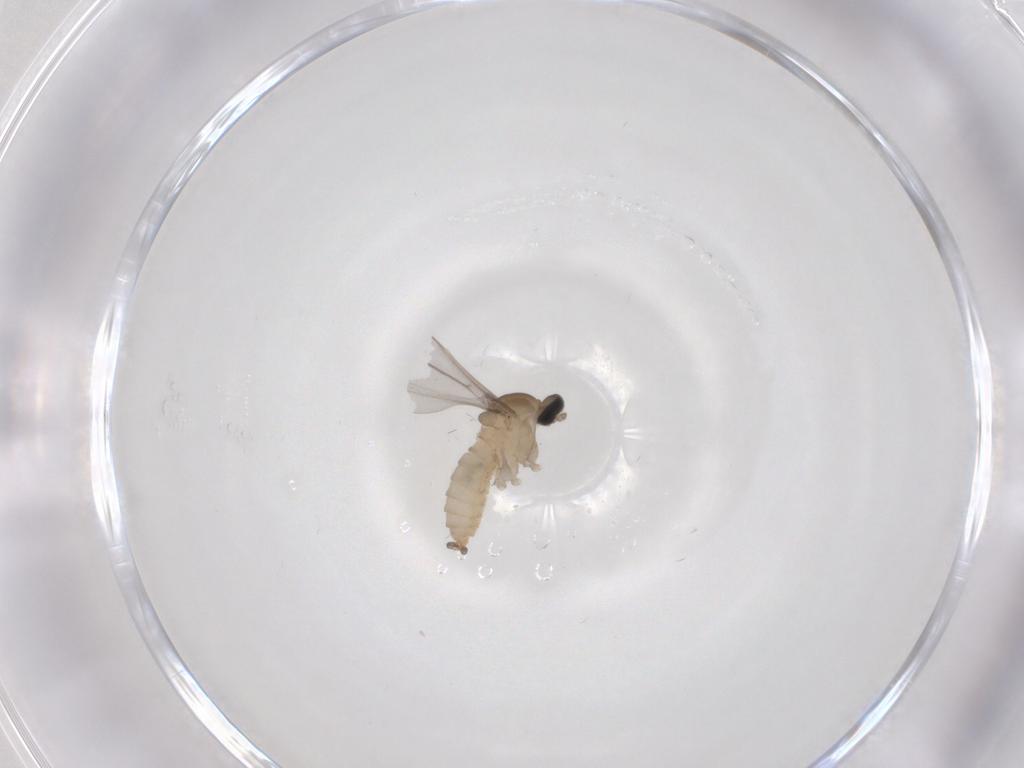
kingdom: Animalia
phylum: Arthropoda
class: Insecta
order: Diptera
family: Cecidomyiidae
